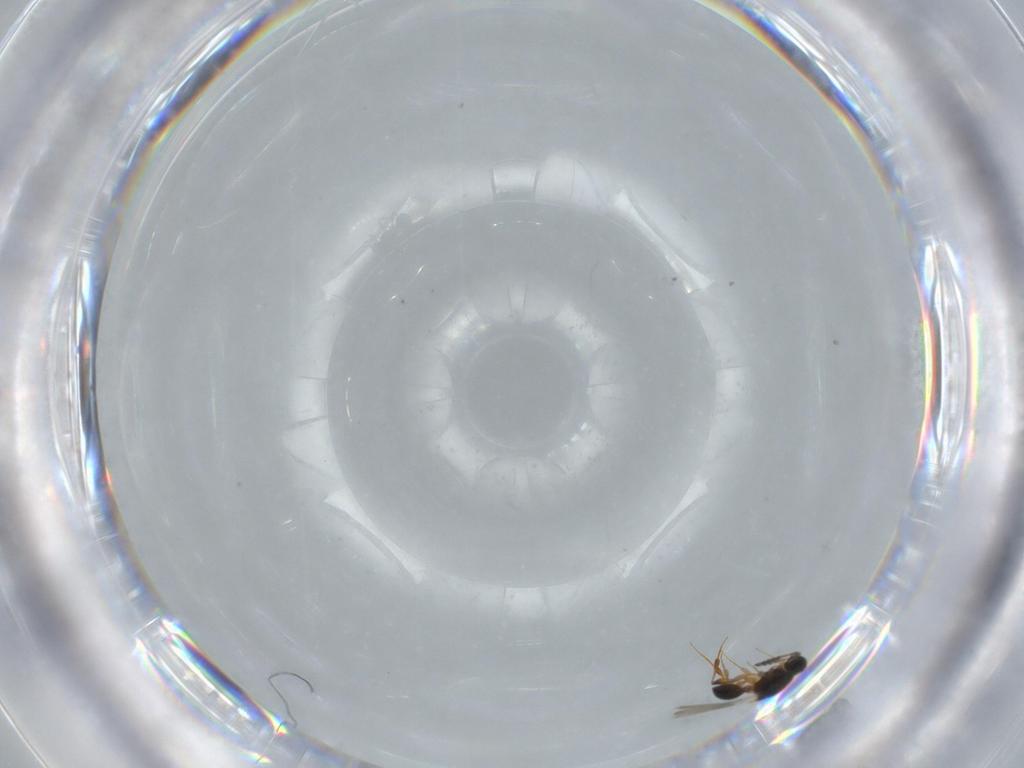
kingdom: Animalia
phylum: Arthropoda
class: Insecta
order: Hymenoptera
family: Platygastridae
